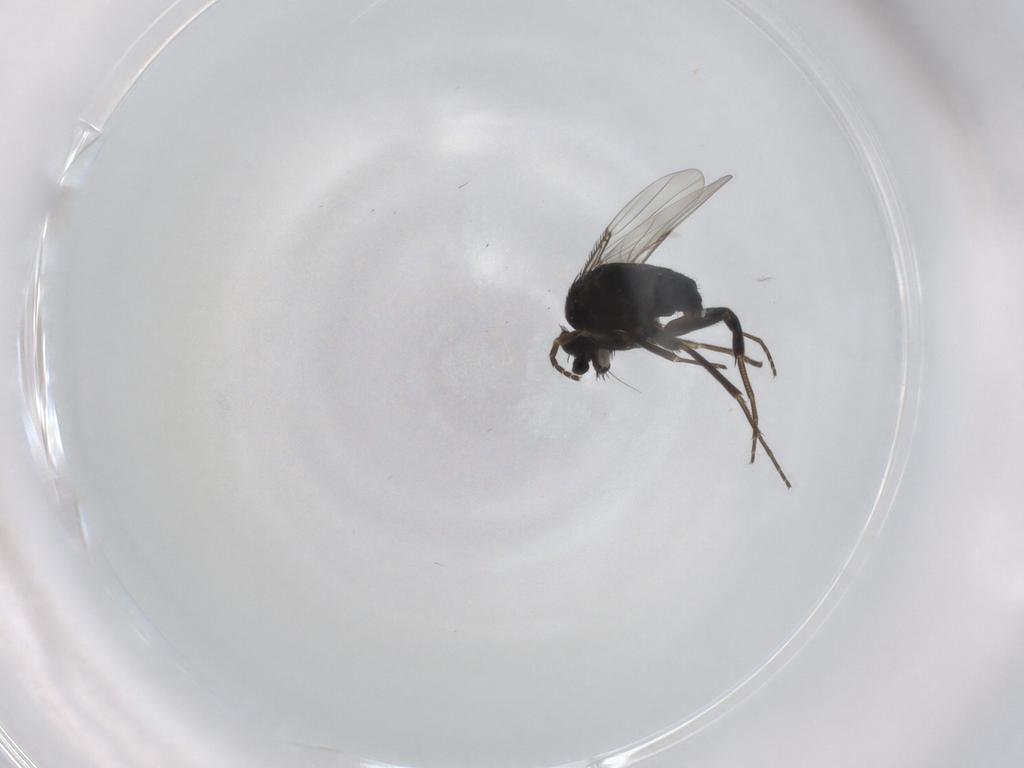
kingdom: Animalia
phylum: Arthropoda
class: Insecta
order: Diptera
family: Phoridae
